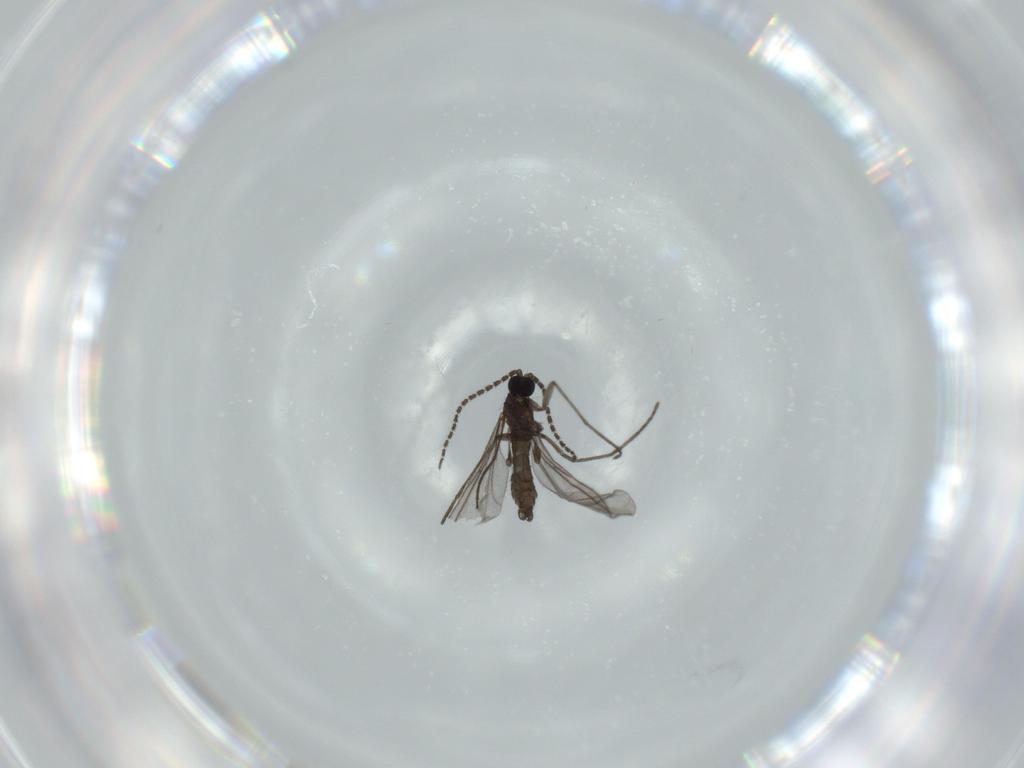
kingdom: Animalia
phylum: Arthropoda
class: Insecta
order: Diptera
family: Sciaridae
